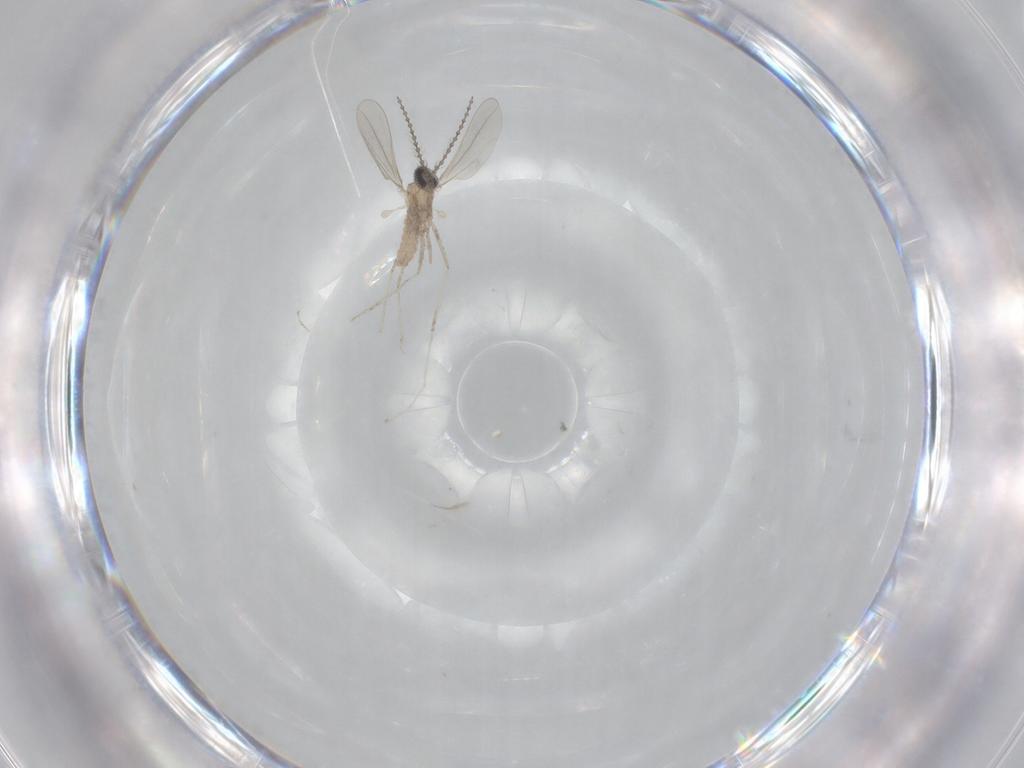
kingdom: Animalia
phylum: Arthropoda
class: Insecta
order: Diptera
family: Cecidomyiidae
